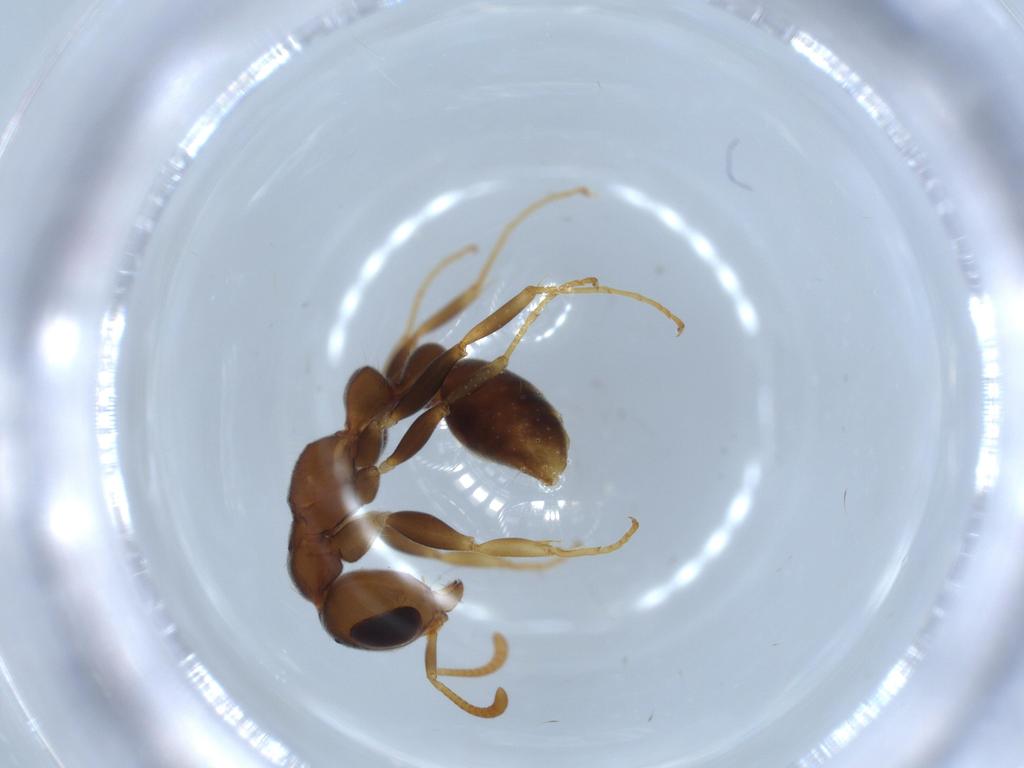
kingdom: Animalia
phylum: Arthropoda
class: Insecta
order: Hymenoptera
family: Formicidae
